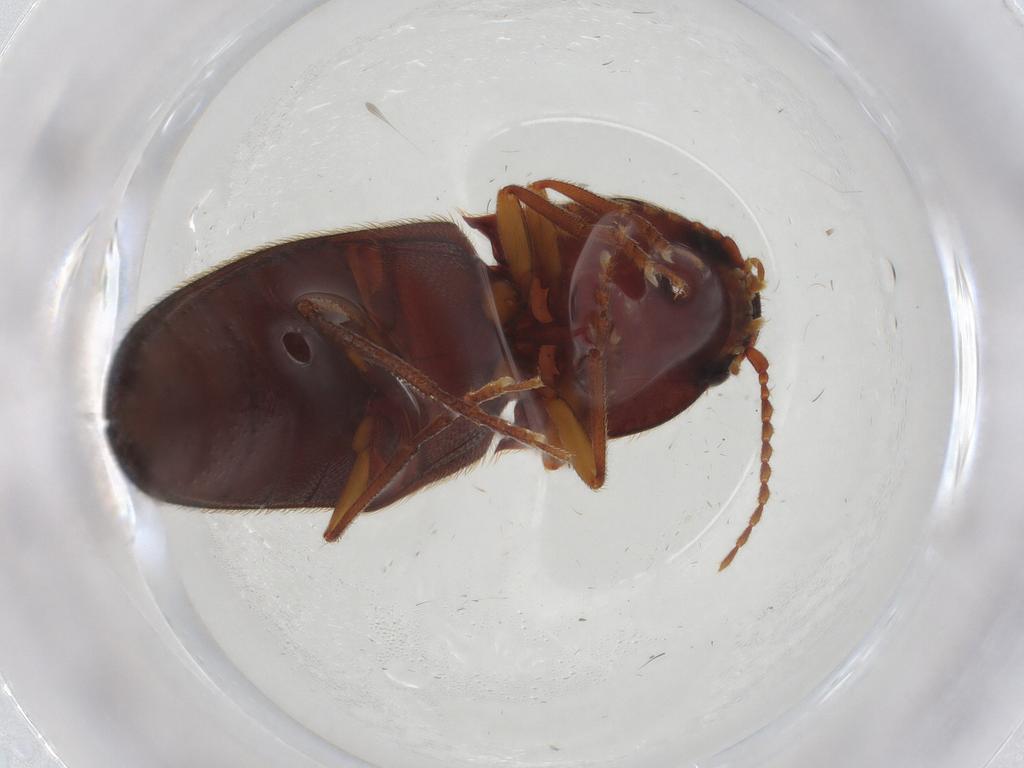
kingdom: Animalia
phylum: Arthropoda
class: Insecta
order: Coleoptera
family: Elateridae
